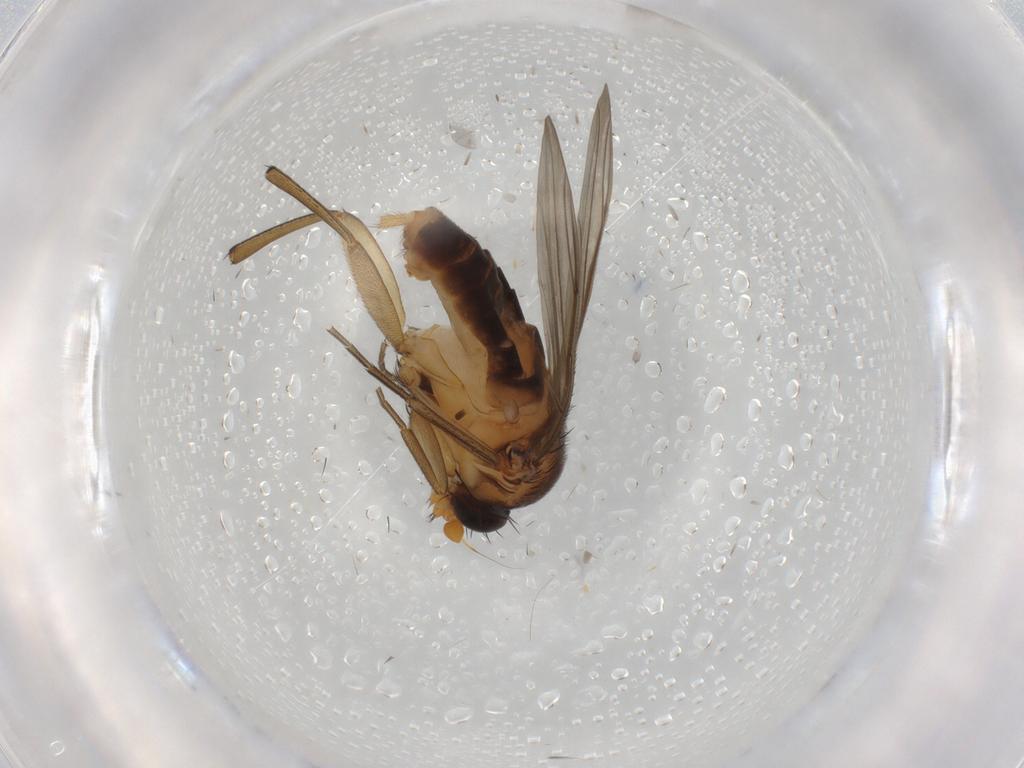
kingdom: Animalia
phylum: Arthropoda
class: Insecta
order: Diptera
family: Phoridae
